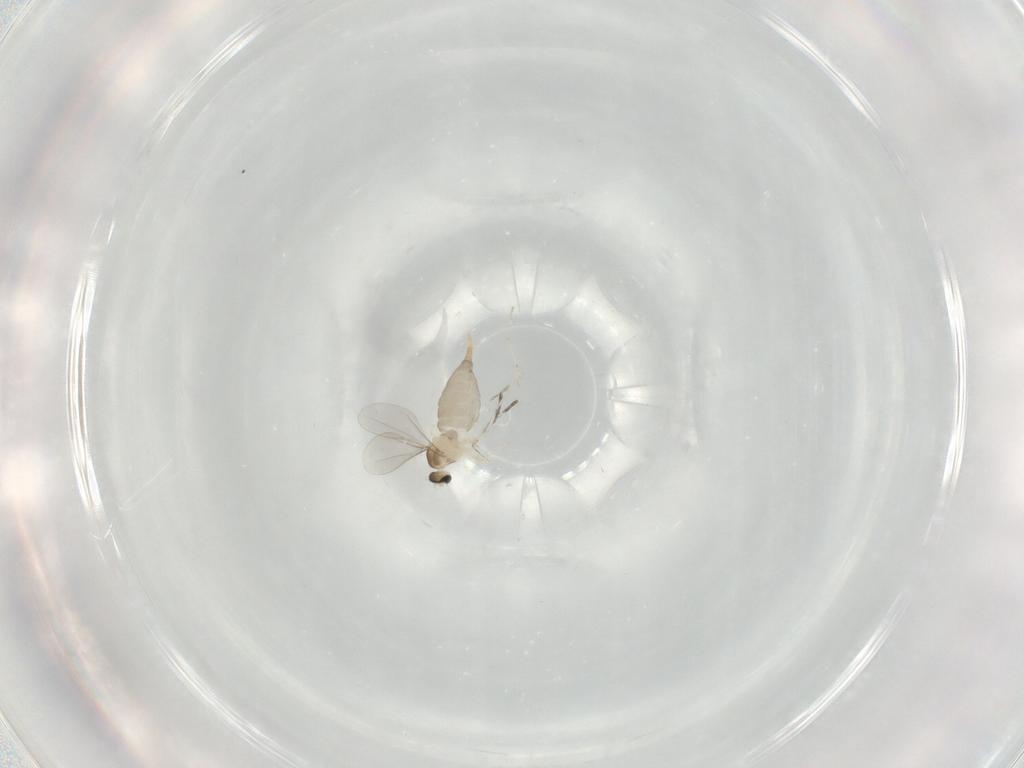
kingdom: Animalia
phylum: Arthropoda
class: Insecta
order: Diptera
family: Cecidomyiidae
